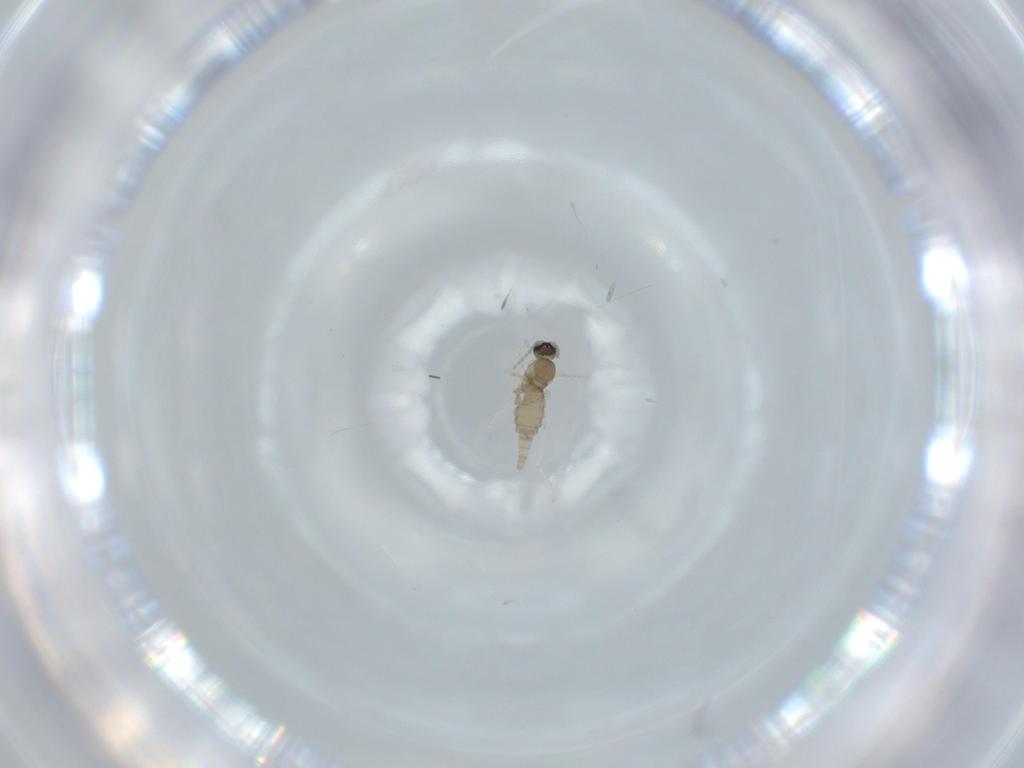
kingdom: Animalia
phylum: Arthropoda
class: Insecta
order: Diptera
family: Cecidomyiidae
